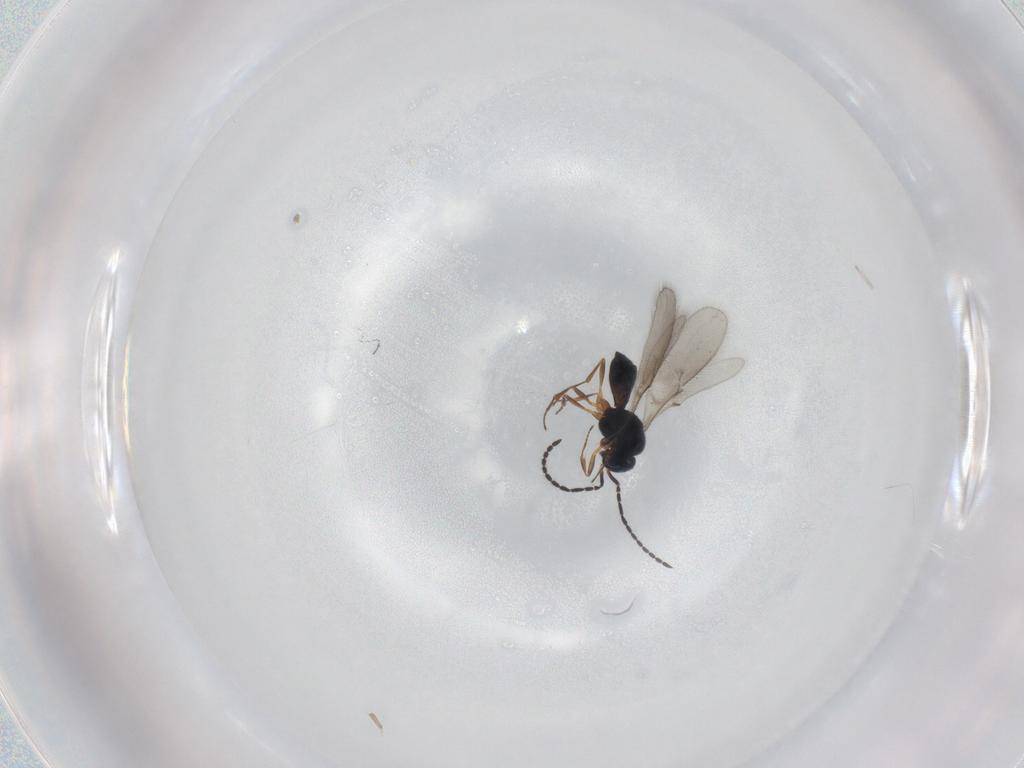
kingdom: Animalia
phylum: Arthropoda
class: Insecta
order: Hymenoptera
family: Scelionidae
